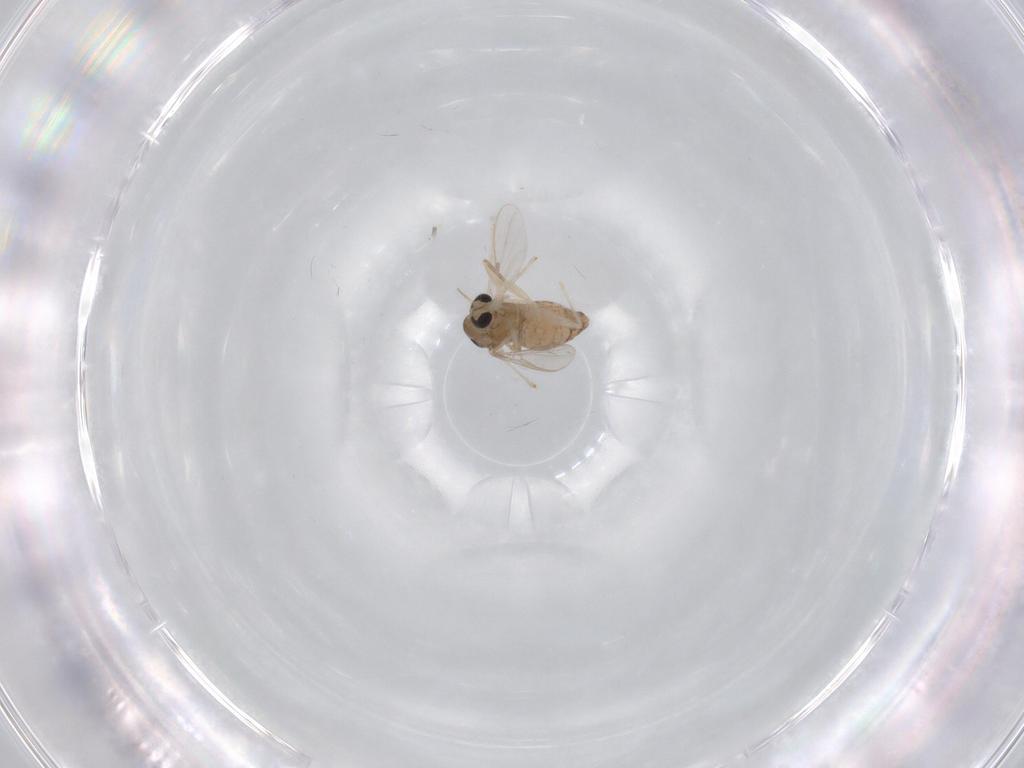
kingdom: Animalia
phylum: Arthropoda
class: Insecta
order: Diptera
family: Chironomidae
